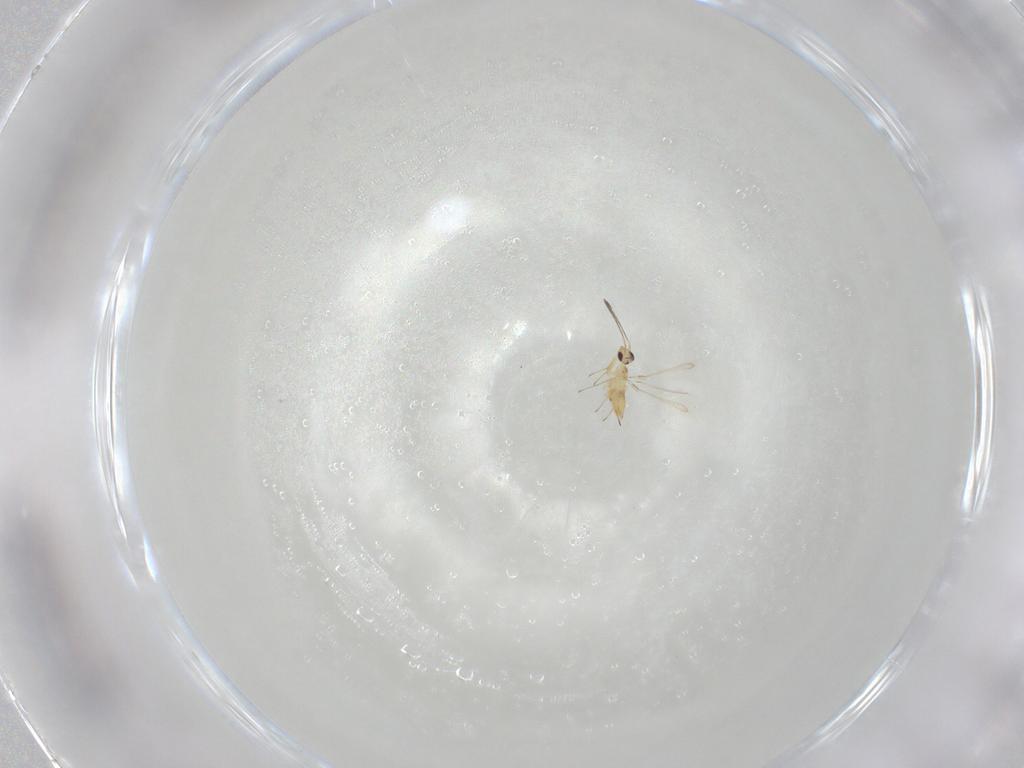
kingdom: Animalia
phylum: Arthropoda
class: Insecta
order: Hymenoptera
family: Mymaridae
